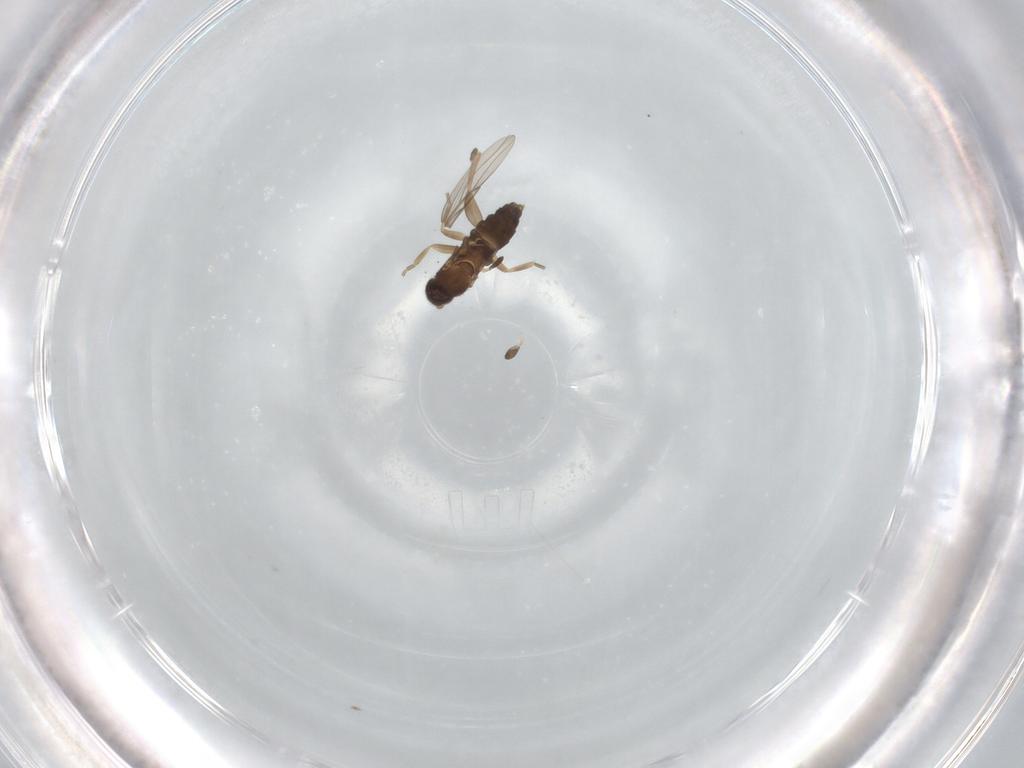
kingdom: Animalia
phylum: Arthropoda
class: Insecta
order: Diptera
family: Phoridae
